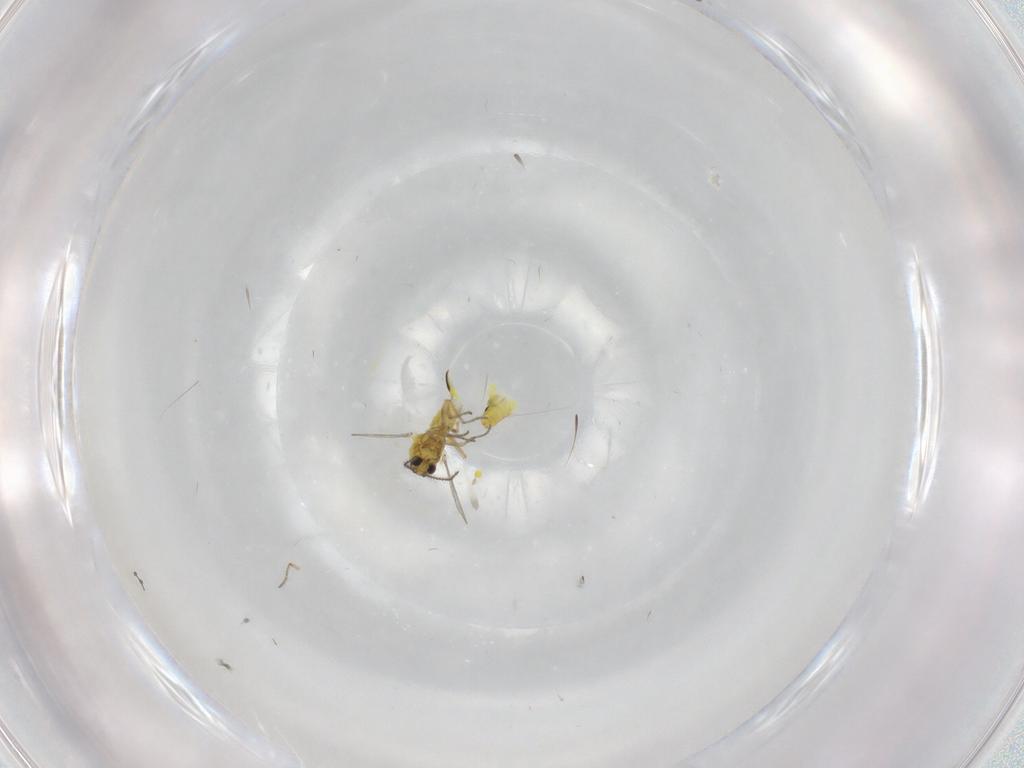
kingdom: Animalia
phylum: Arthropoda
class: Insecta
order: Diptera
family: Ceratopogonidae
